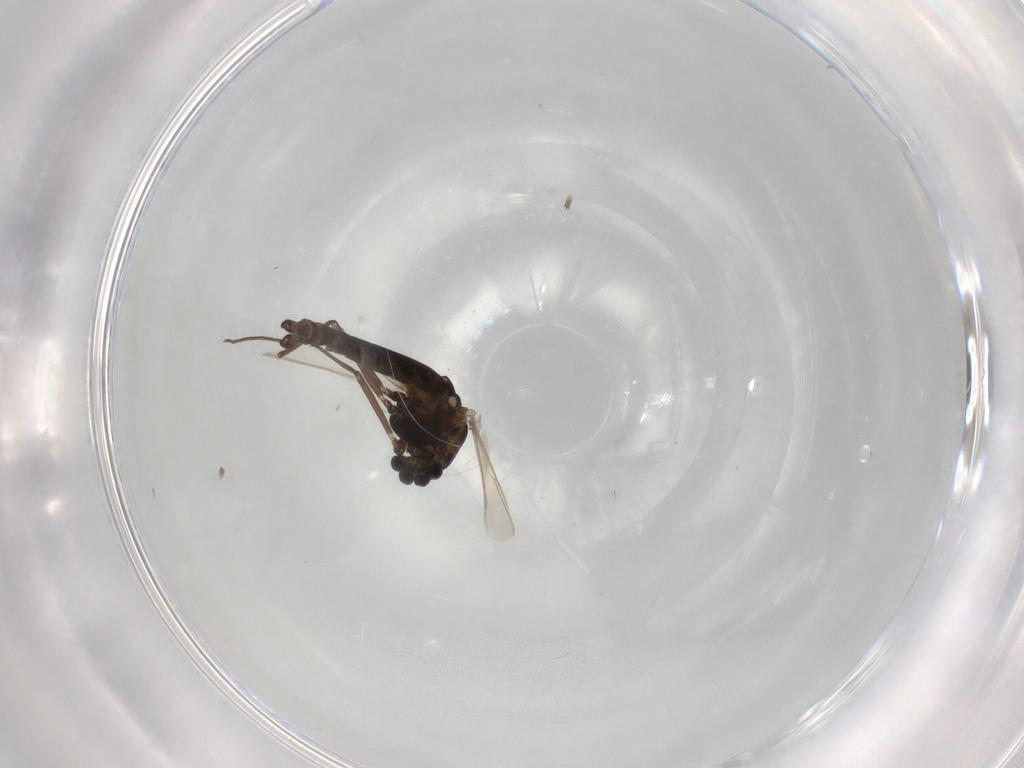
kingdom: Animalia
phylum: Arthropoda
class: Insecta
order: Diptera
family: Chironomidae
